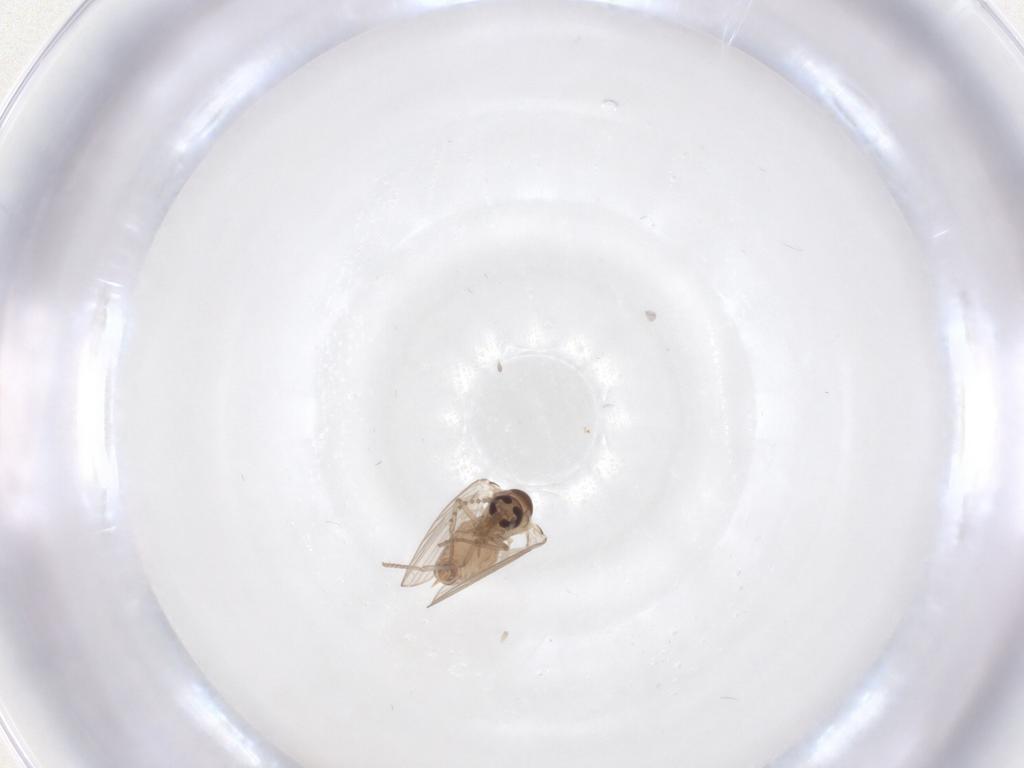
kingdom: Animalia
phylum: Arthropoda
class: Insecta
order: Diptera
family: Psychodidae
